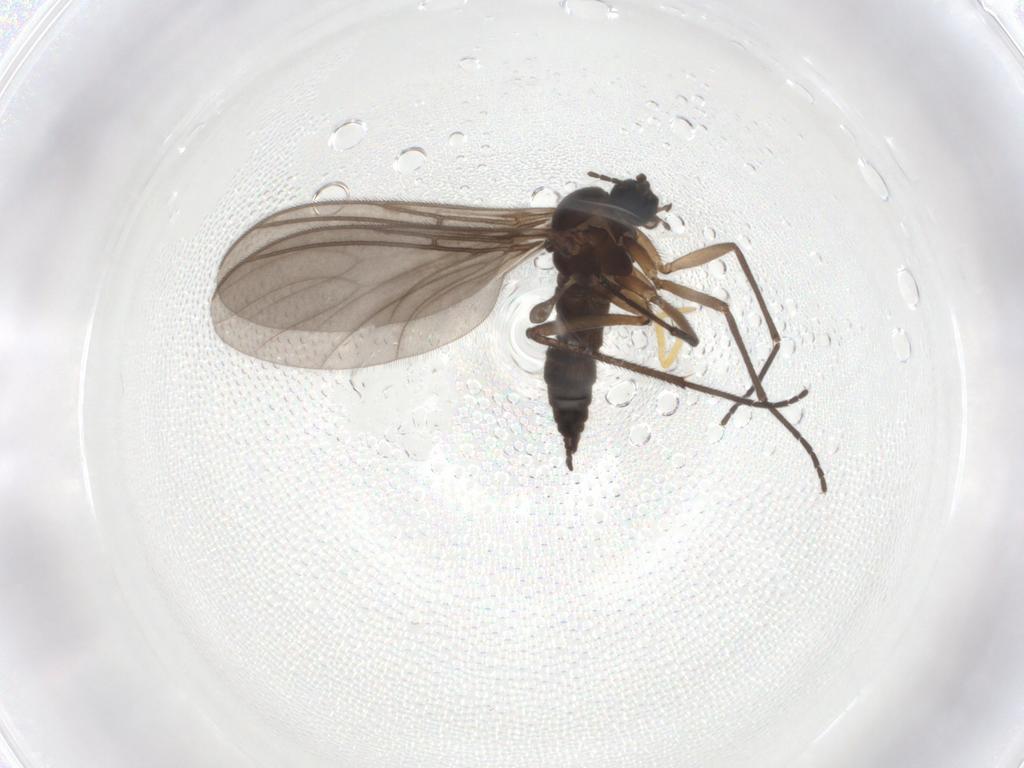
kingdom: Animalia
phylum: Arthropoda
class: Insecta
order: Diptera
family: Sciaridae
